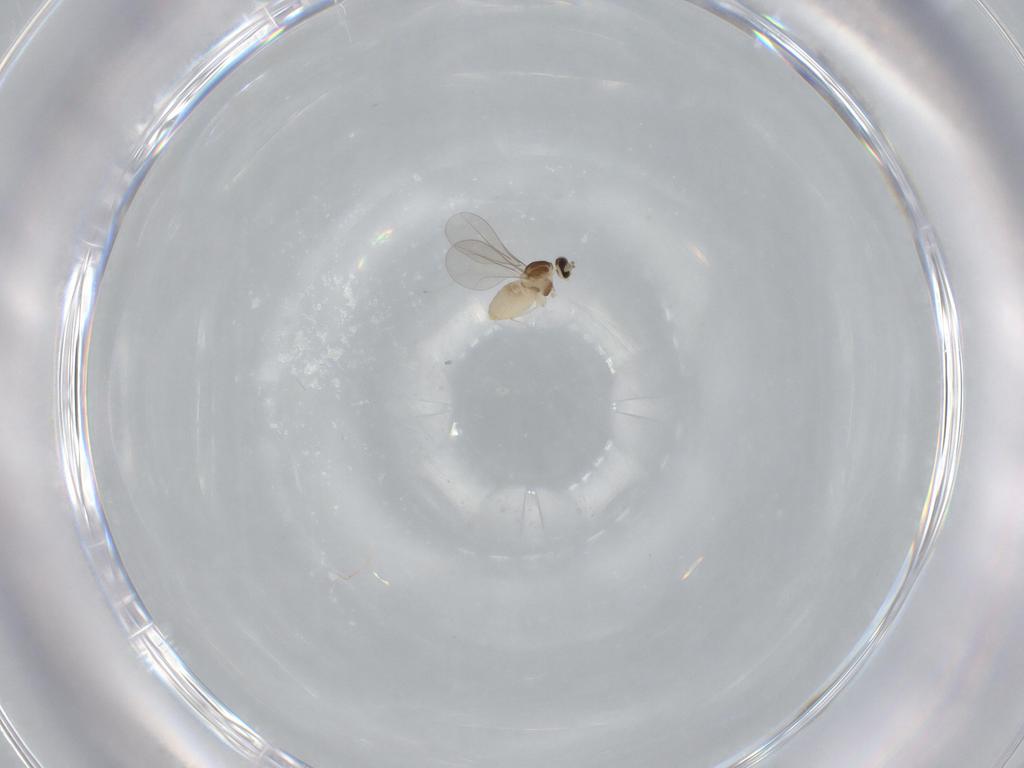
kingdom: Animalia
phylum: Arthropoda
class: Insecta
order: Diptera
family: Cecidomyiidae
